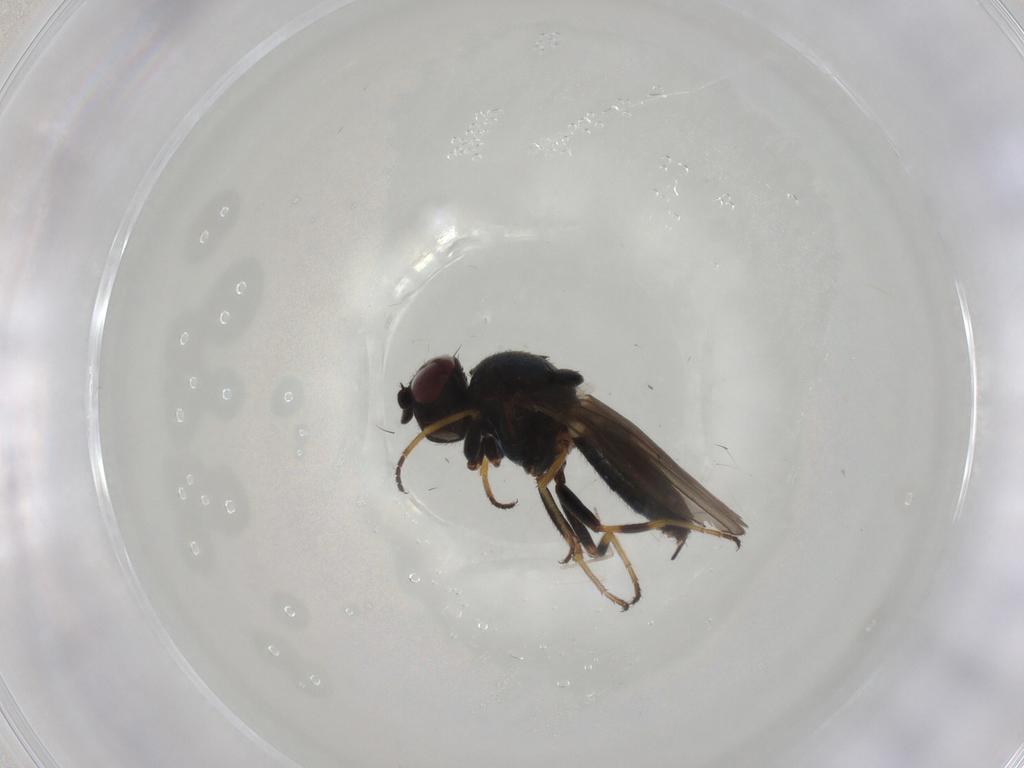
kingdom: Animalia
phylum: Arthropoda
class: Insecta
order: Diptera
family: Chloropidae
